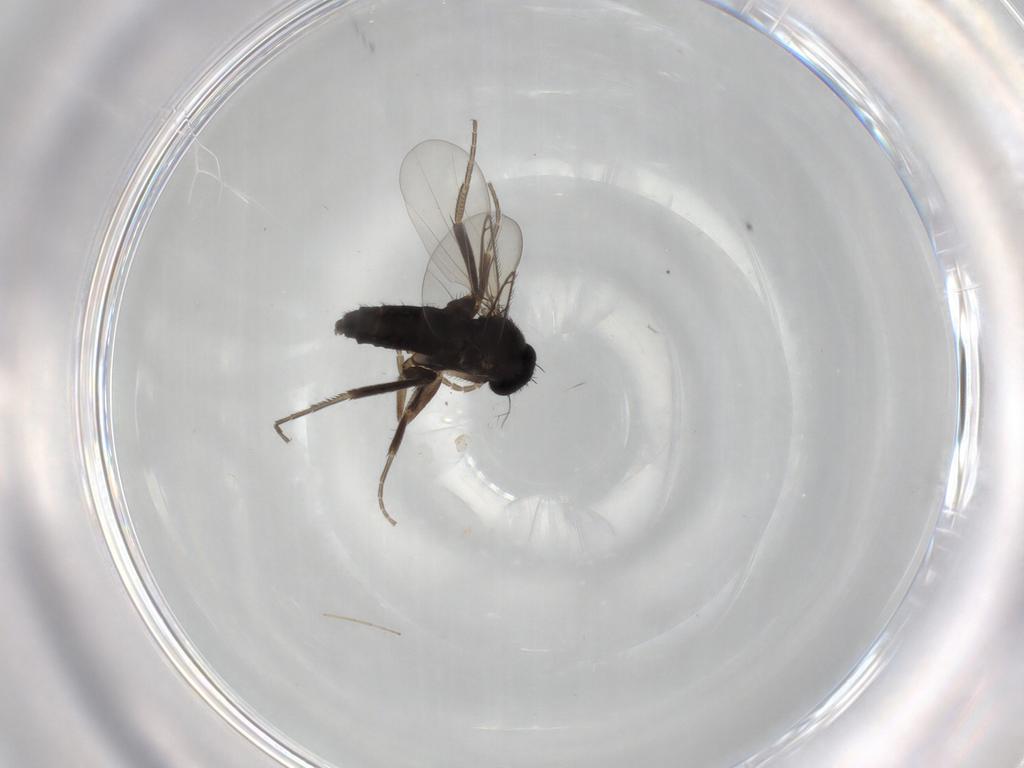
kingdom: Animalia
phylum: Arthropoda
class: Insecta
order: Diptera
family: Phoridae
